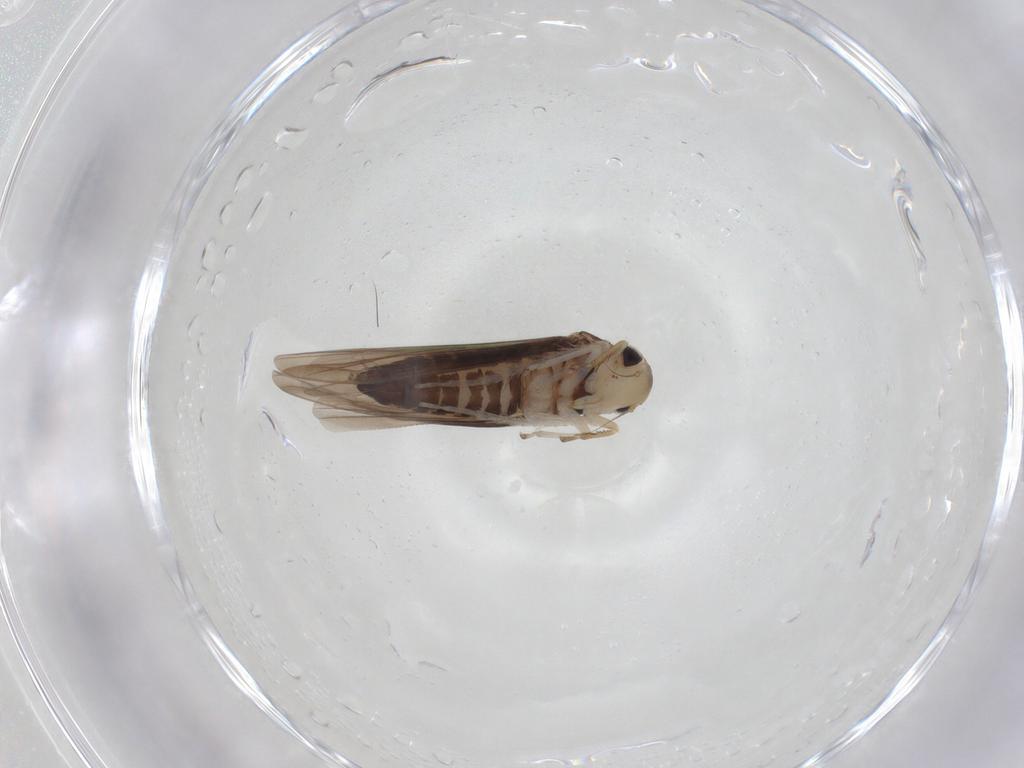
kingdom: Animalia
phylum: Arthropoda
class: Insecta
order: Hemiptera
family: Cicadellidae
